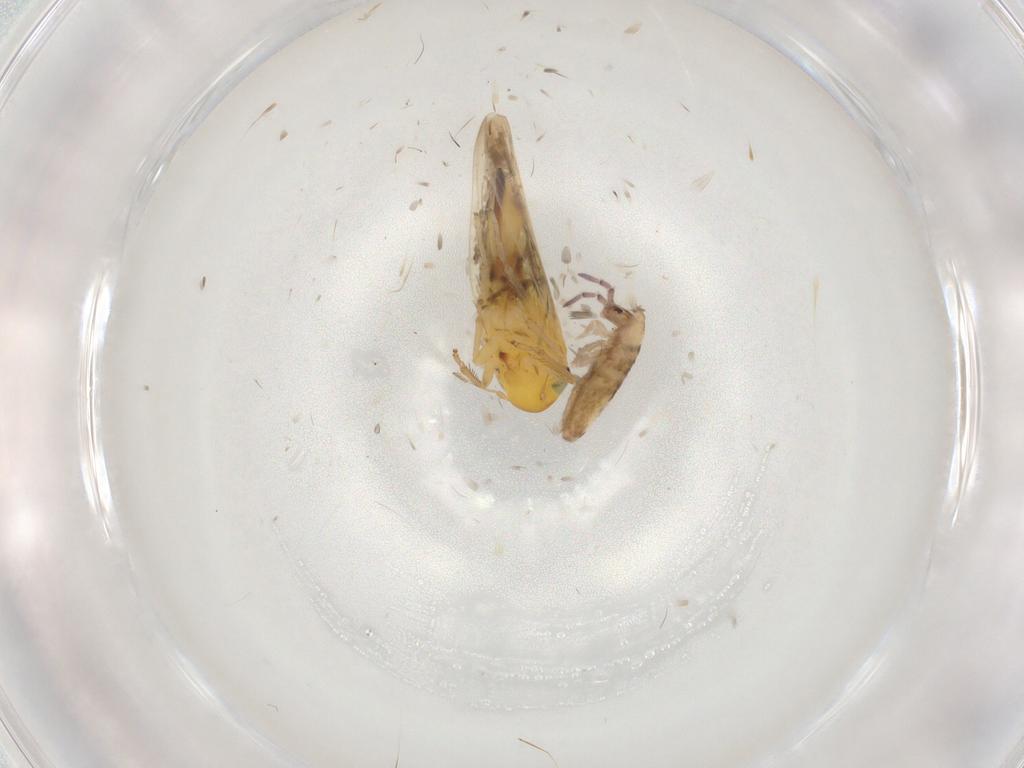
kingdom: Animalia
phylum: Arthropoda
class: Insecta
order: Hemiptera
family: Cicadellidae
